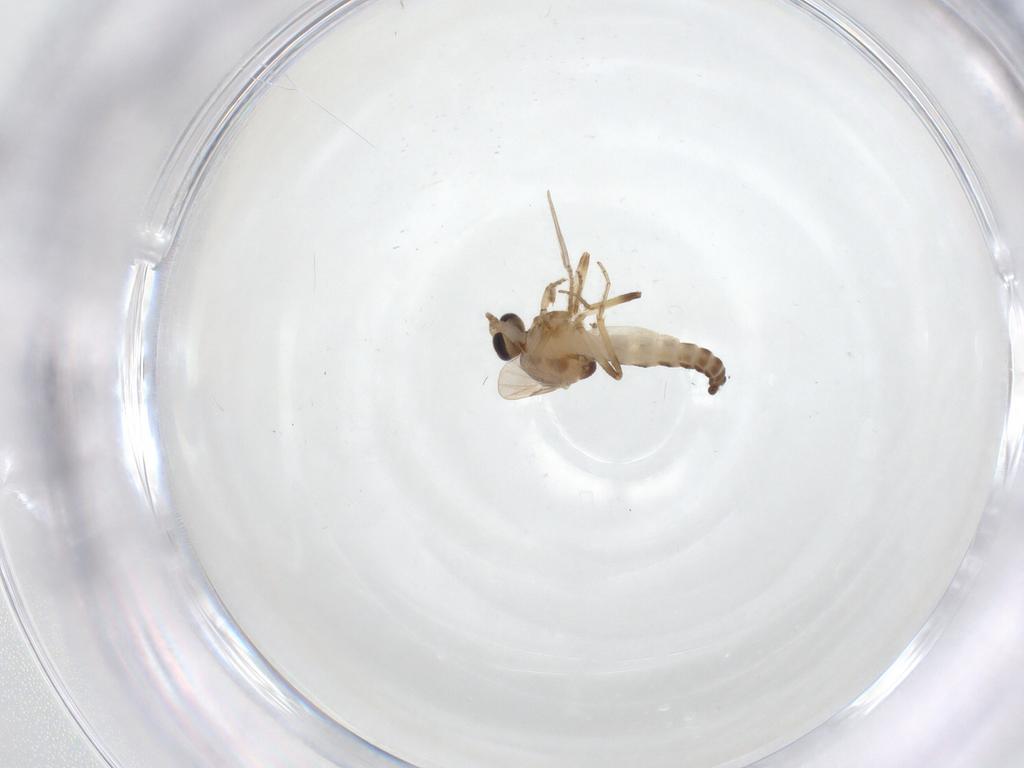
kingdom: Animalia
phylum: Arthropoda
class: Insecta
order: Diptera
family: Ceratopogonidae
